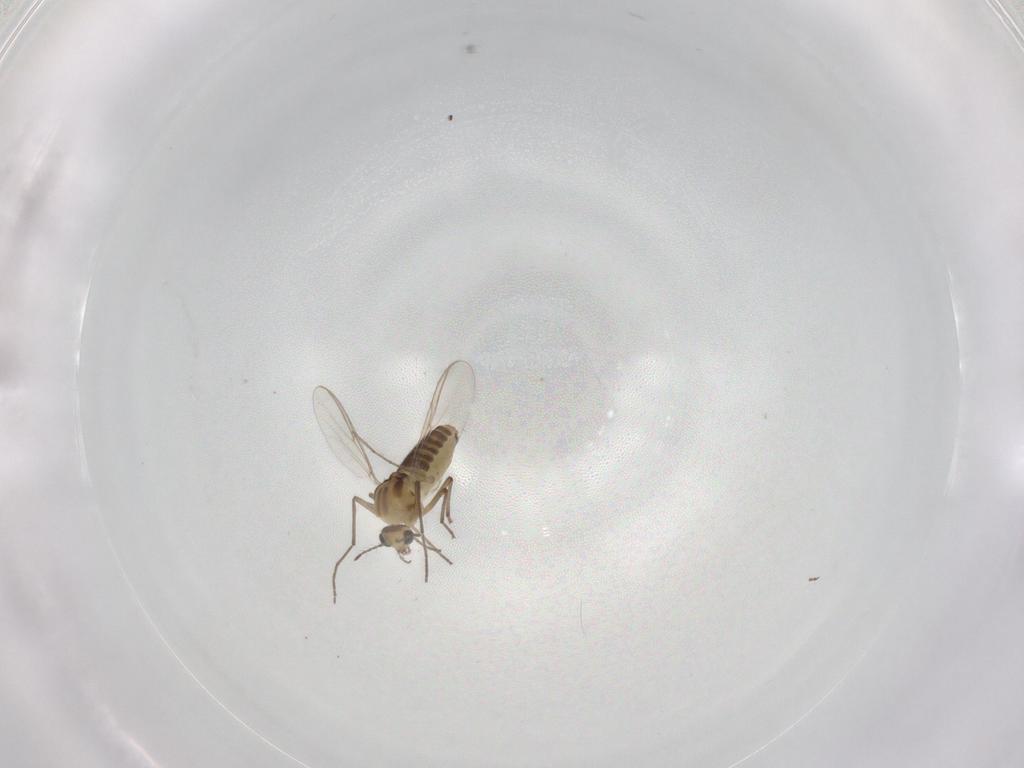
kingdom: Animalia
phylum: Arthropoda
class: Insecta
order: Diptera
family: Chironomidae
